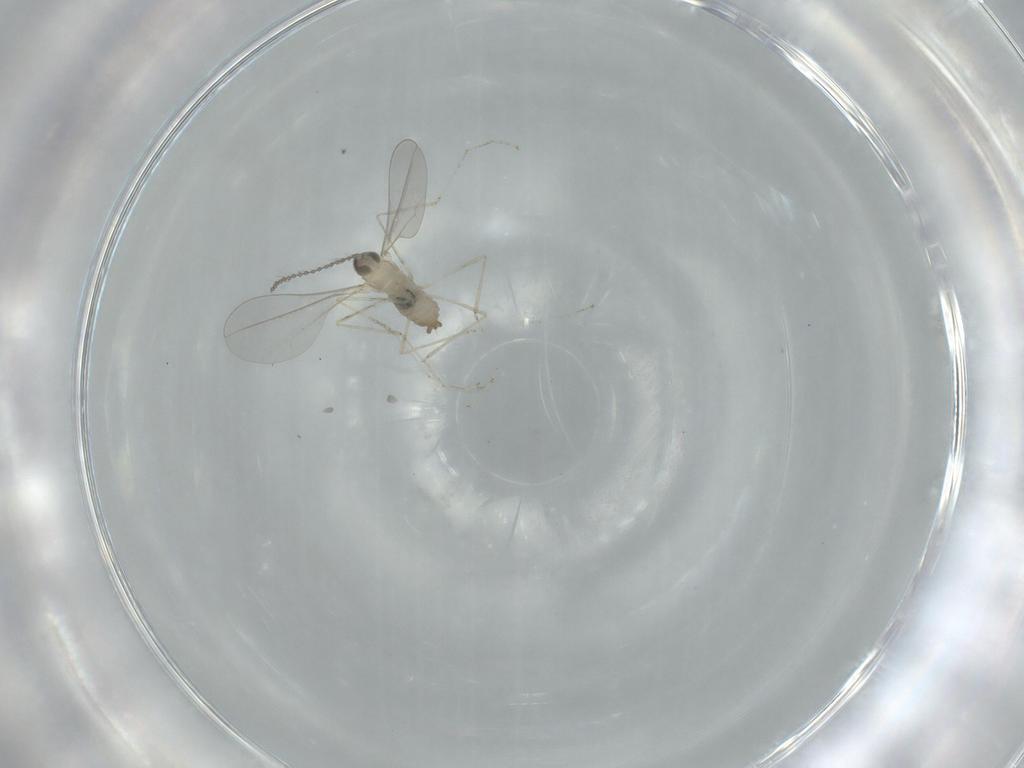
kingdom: Animalia
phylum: Arthropoda
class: Insecta
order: Diptera
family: Cecidomyiidae
